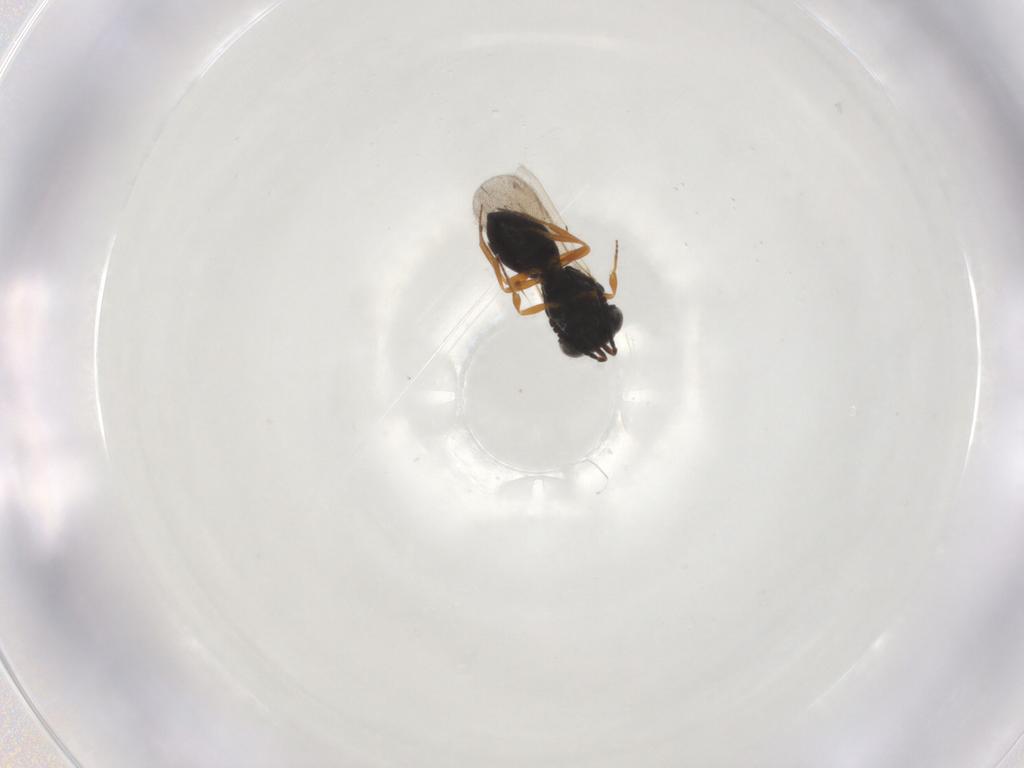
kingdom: Animalia
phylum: Arthropoda
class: Insecta
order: Hymenoptera
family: Scelionidae
